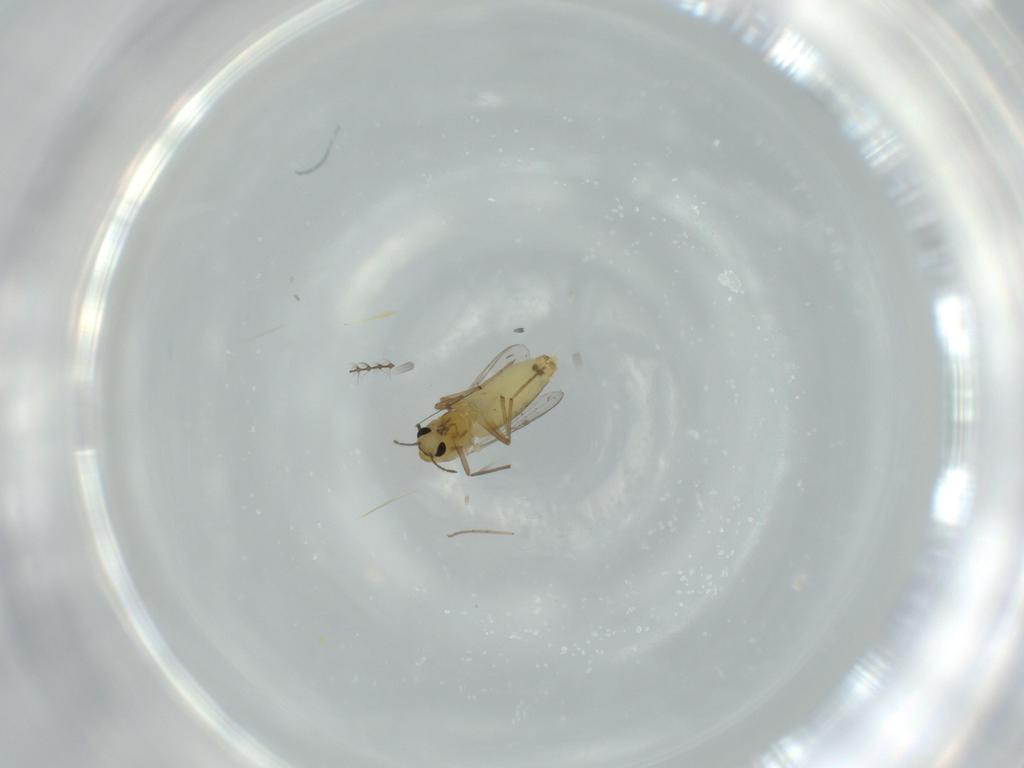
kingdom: Animalia
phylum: Arthropoda
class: Insecta
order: Diptera
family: Chironomidae
